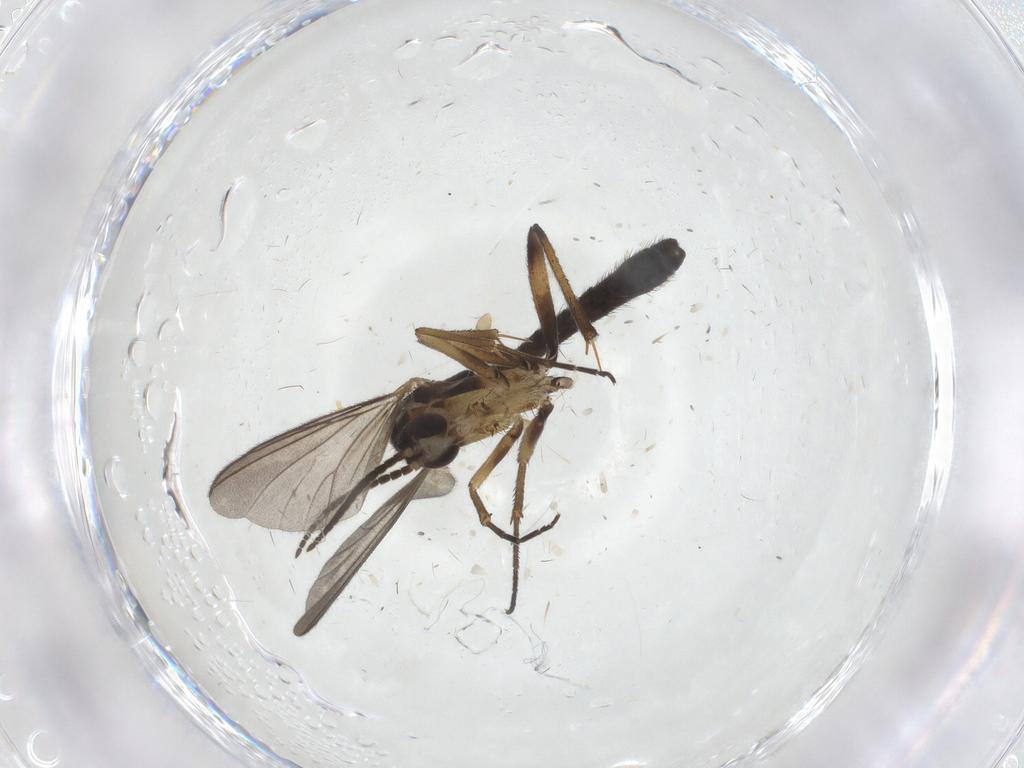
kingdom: Animalia
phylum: Arthropoda
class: Insecta
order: Diptera
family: Mycetophilidae
